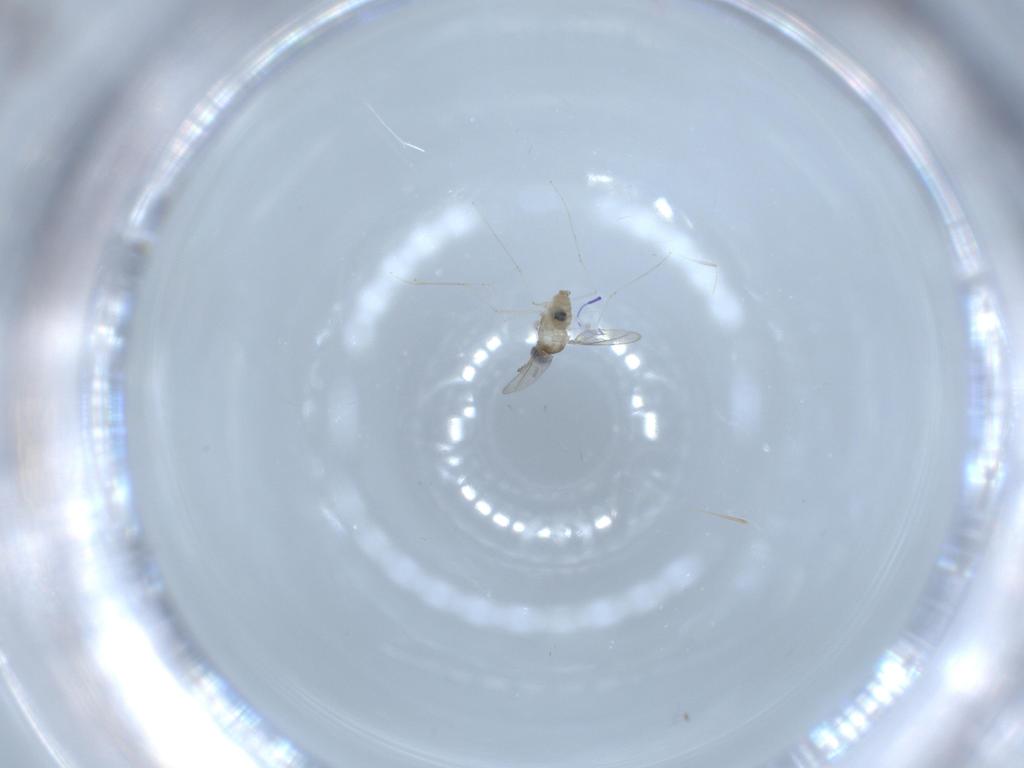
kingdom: Animalia
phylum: Arthropoda
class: Insecta
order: Diptera
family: Cecidomyiidae
